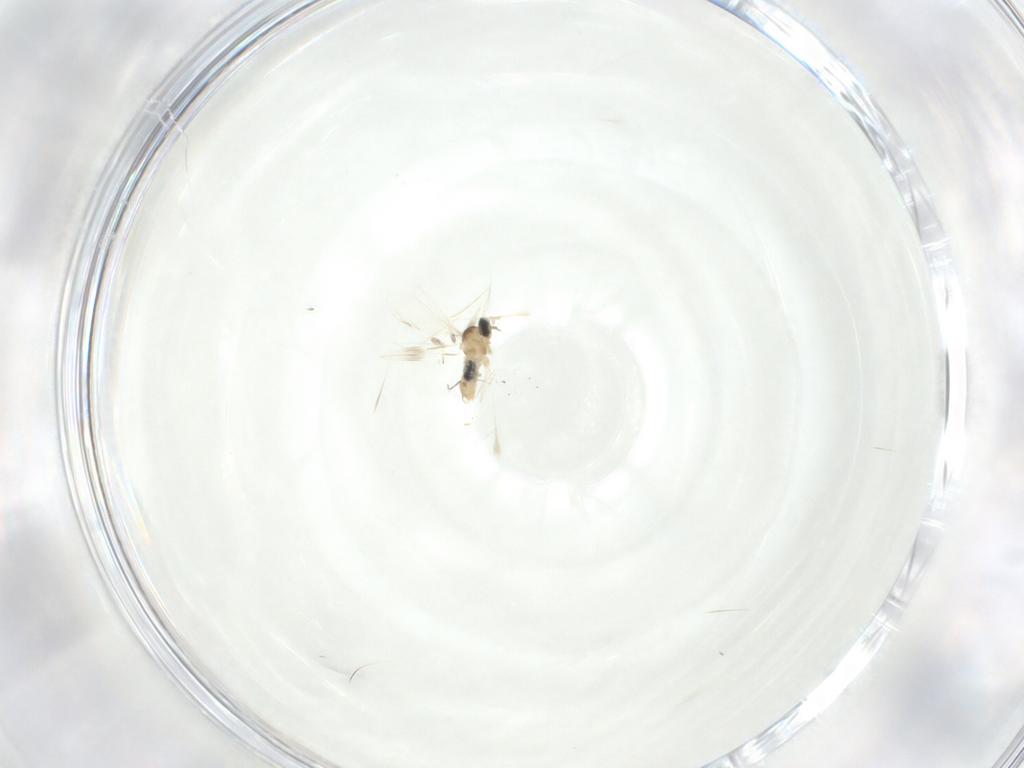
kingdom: Animalia
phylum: Arthropoda
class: Insecta
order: Diptera
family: Cecidomyiidae
